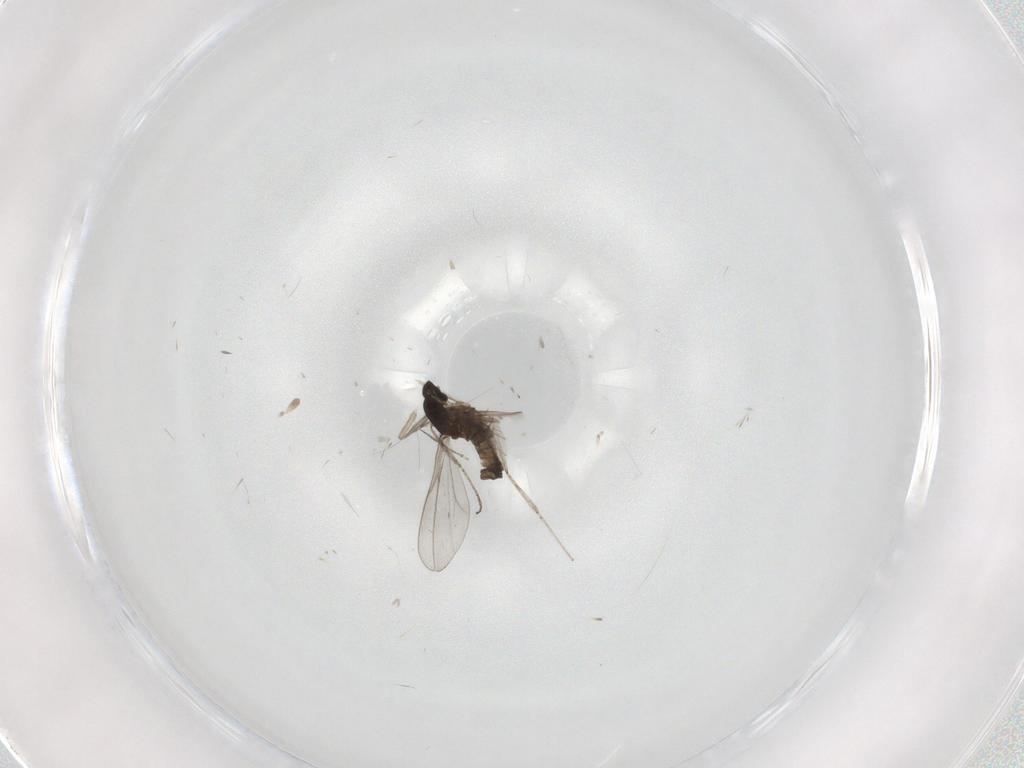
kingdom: Animalia
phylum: Arthropoda
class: Insecta
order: Diptera
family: Cecidomyiidae
